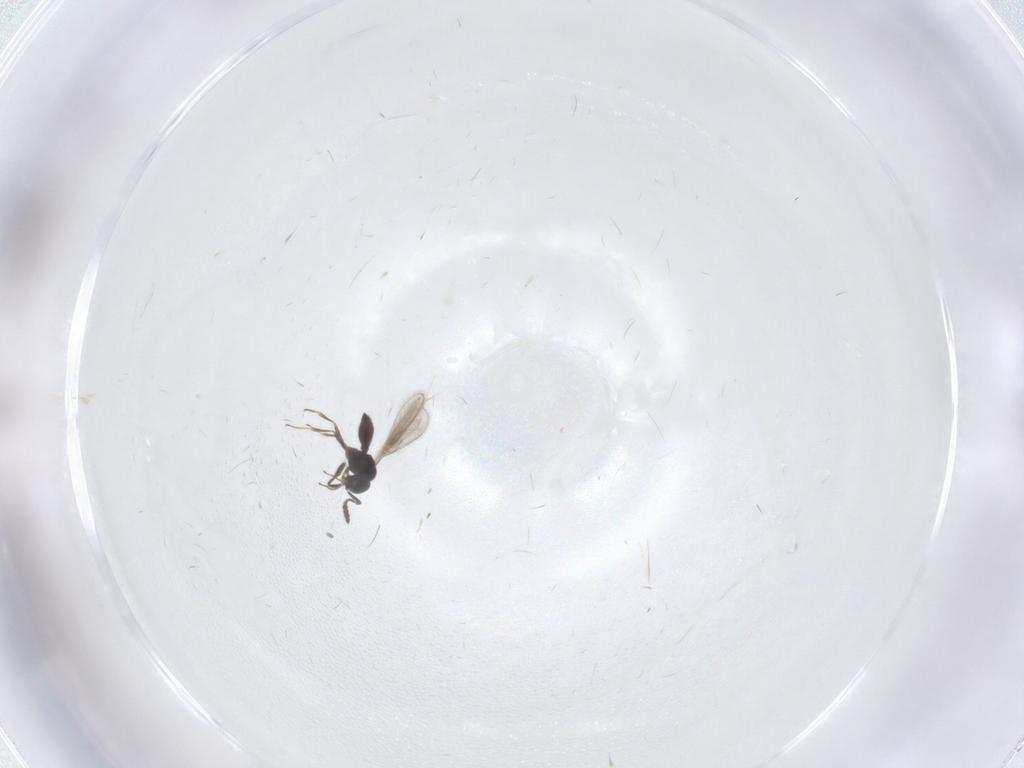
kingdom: Animalia
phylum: Arthropoda
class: Insecta
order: Hymenoptera
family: Scelionidae
